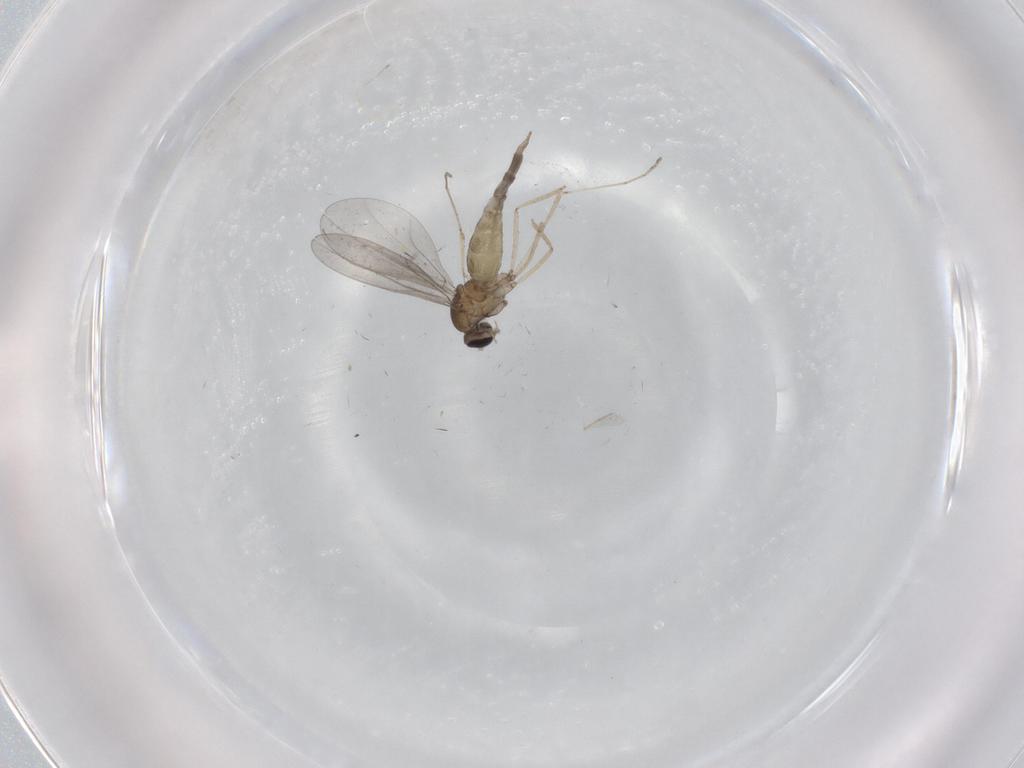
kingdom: Animalia
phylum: Arthropoda
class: Insecta
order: Diptera
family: Cecidomyiidae
